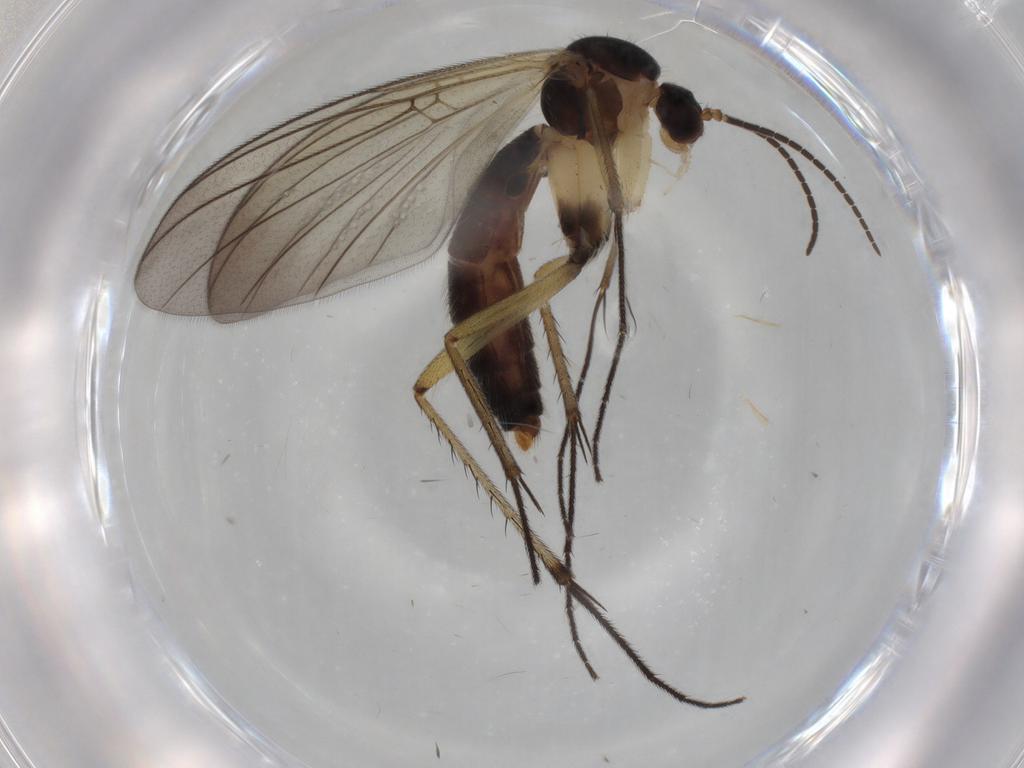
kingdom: Animalia
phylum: Arthropoda
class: Insecta
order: Diptera
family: Mycetophilidae
